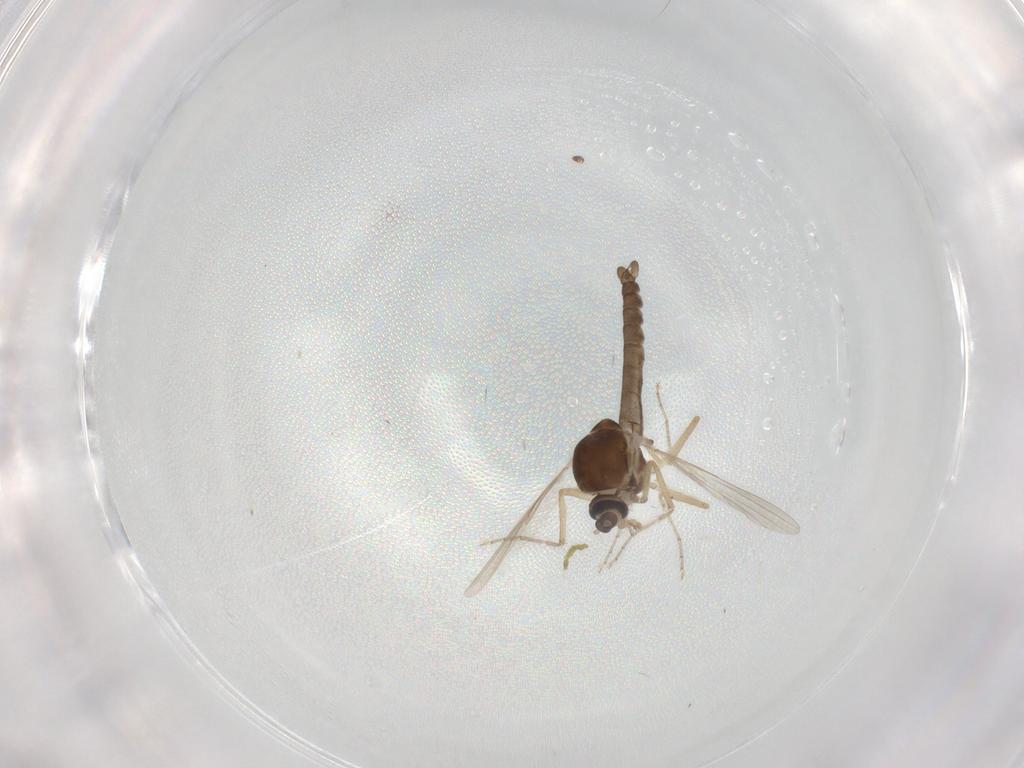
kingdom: Animalia
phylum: Arthropoda
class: Insecta
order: Diptera
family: Ceratopogonidae
